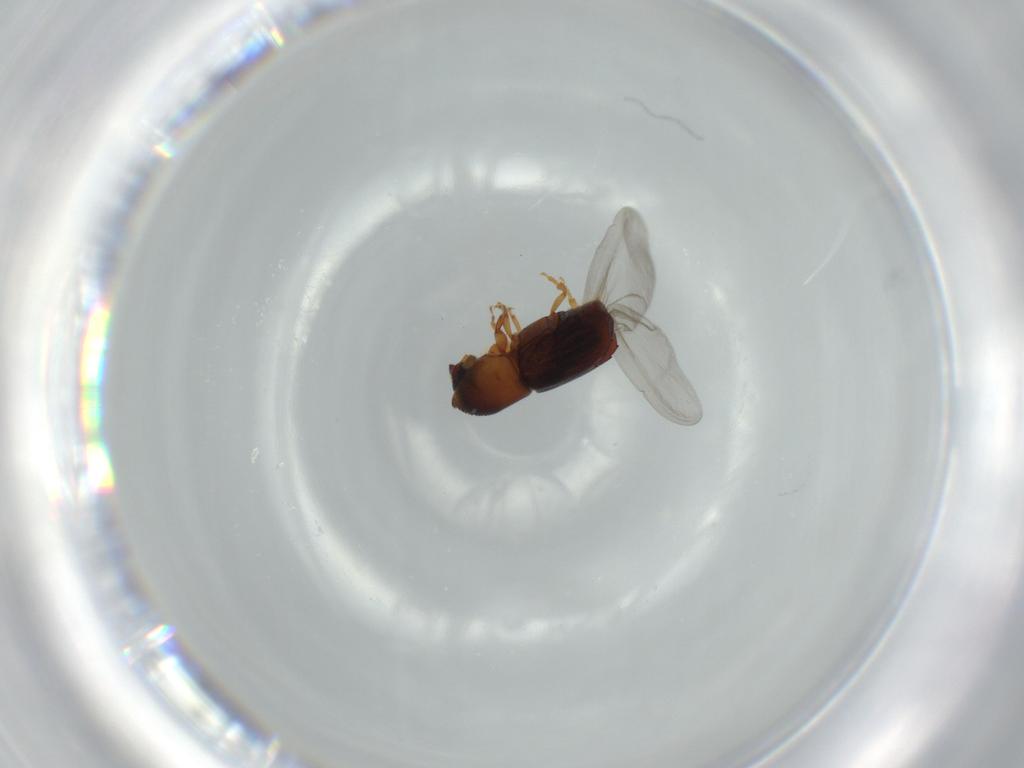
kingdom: Animalia
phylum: Arthropoda
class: Insecta
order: Coleoptera
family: Curculionidae
